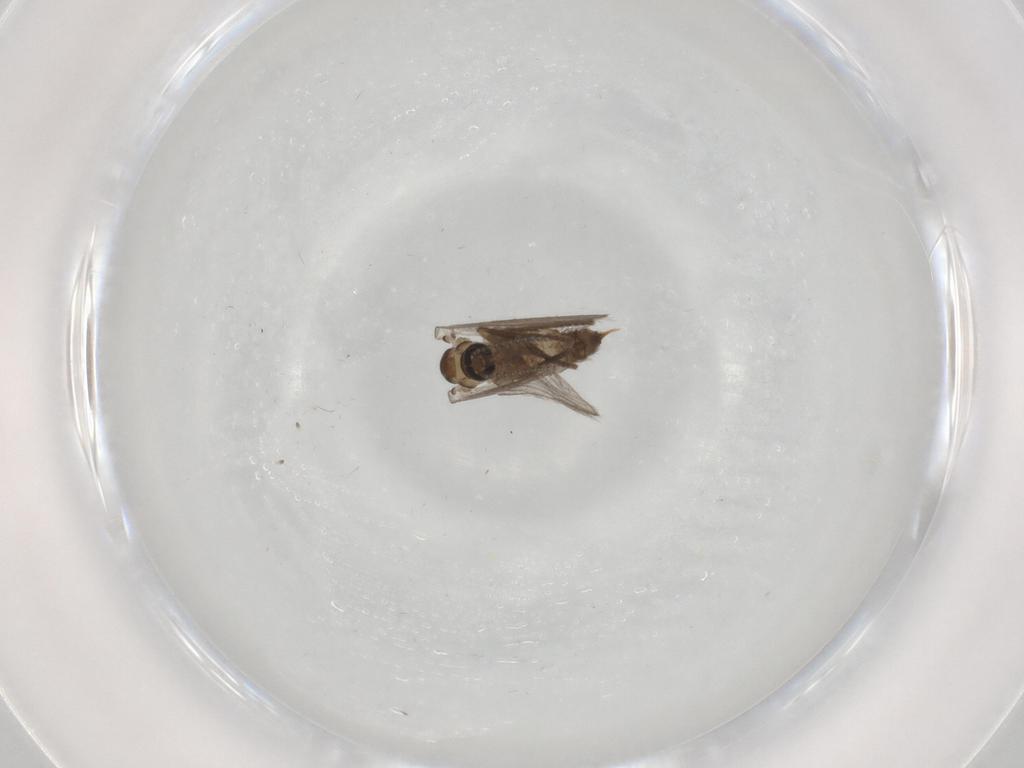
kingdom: Animalia
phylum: Arthropoda
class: Insecta
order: Diptera
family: Psychodidae
